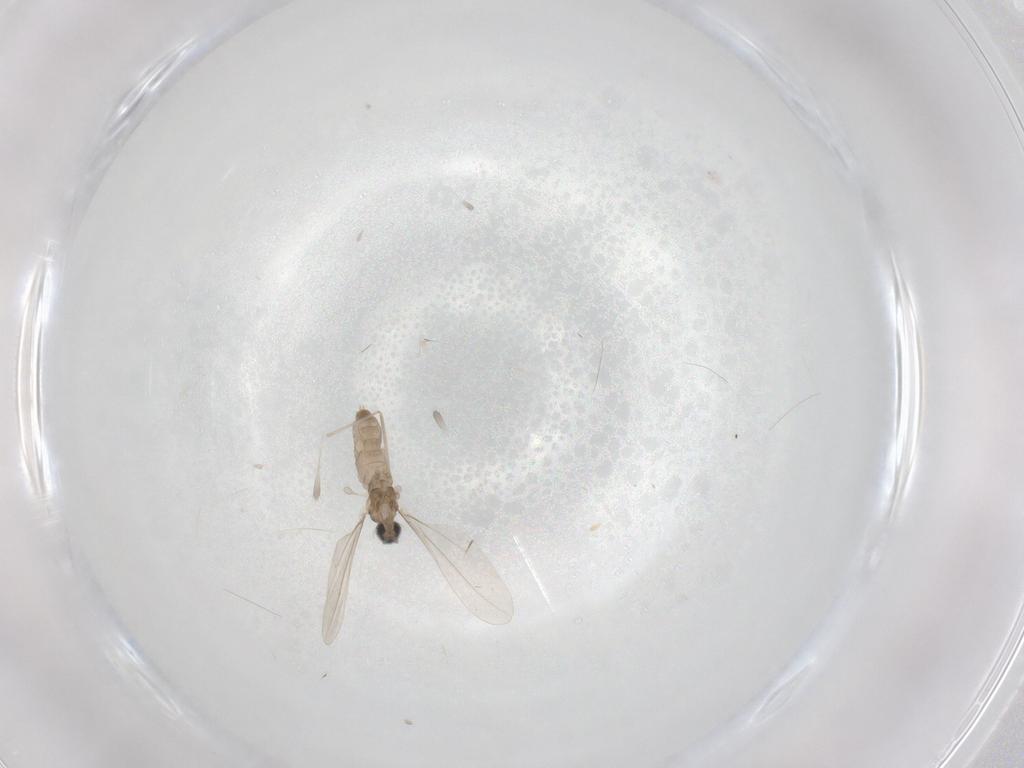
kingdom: Animalia
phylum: Arthropoda
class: Insecta
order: Diptera
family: Cecidomyiidae
